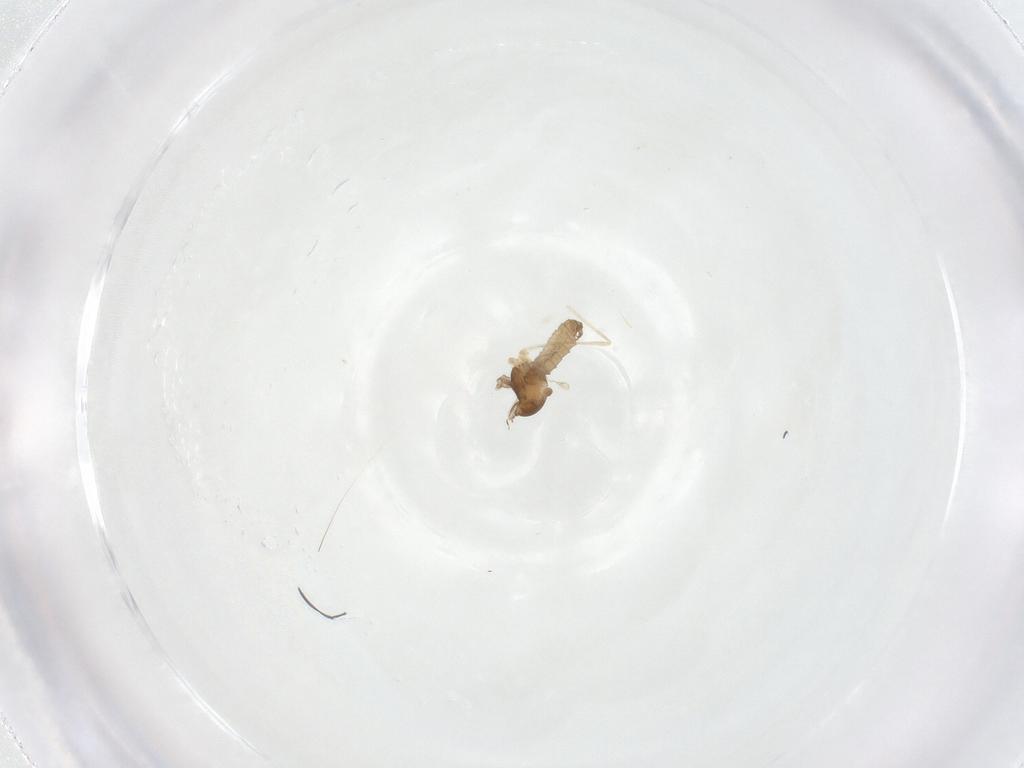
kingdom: Animalia
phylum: Arthropoda
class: Insecta
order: Diptera
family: Cecidomyiidae
